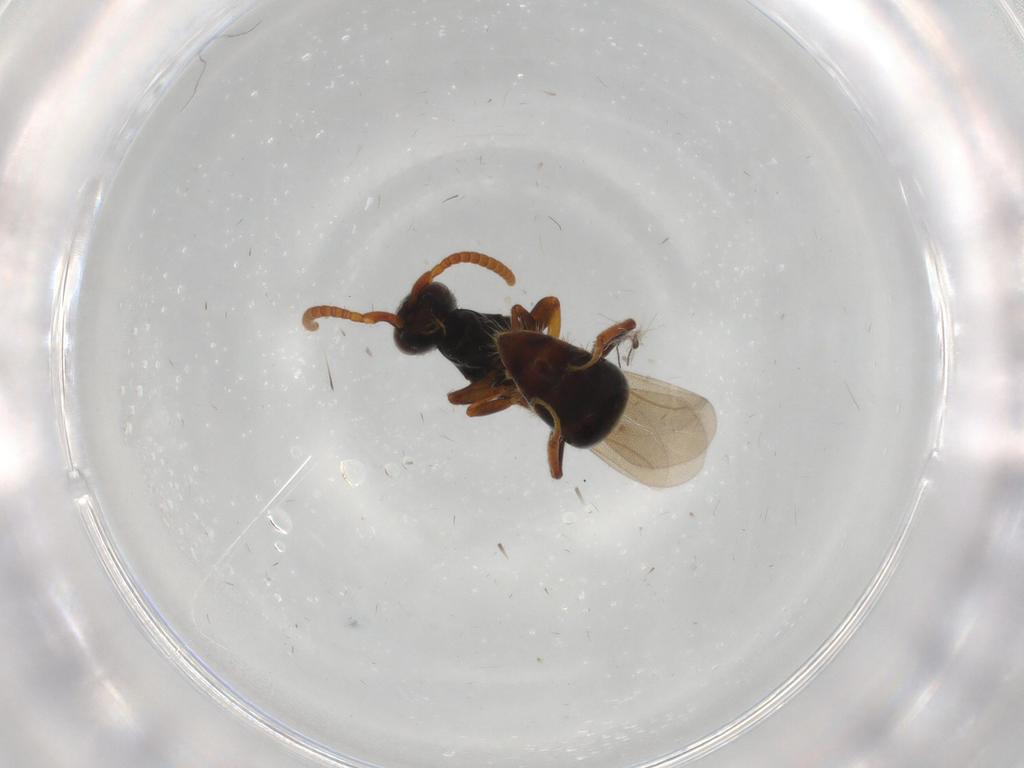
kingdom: Animalia
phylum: Arthropoda
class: Insecta
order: Hymenoptera
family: Bethylidae
